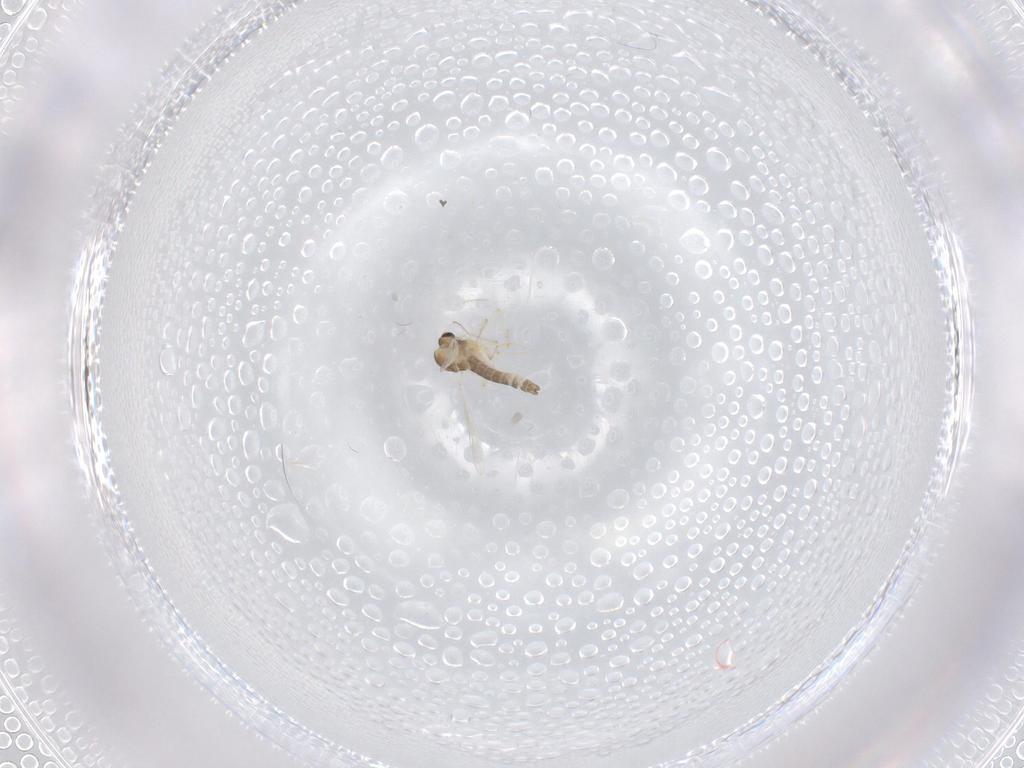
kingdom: Animalia
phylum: Arthropoda
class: Insecta
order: Diptera
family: Chironomidae
